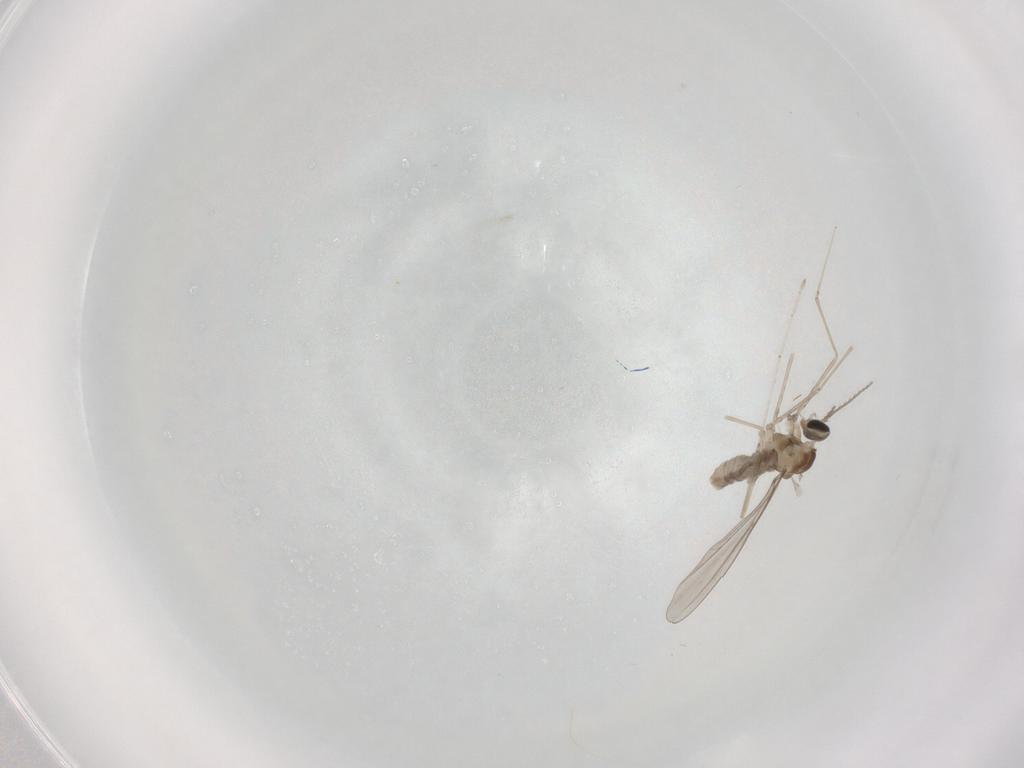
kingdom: Animalia
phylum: Arthropoda
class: Insecta
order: Diptera
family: Cecidomyiidae
